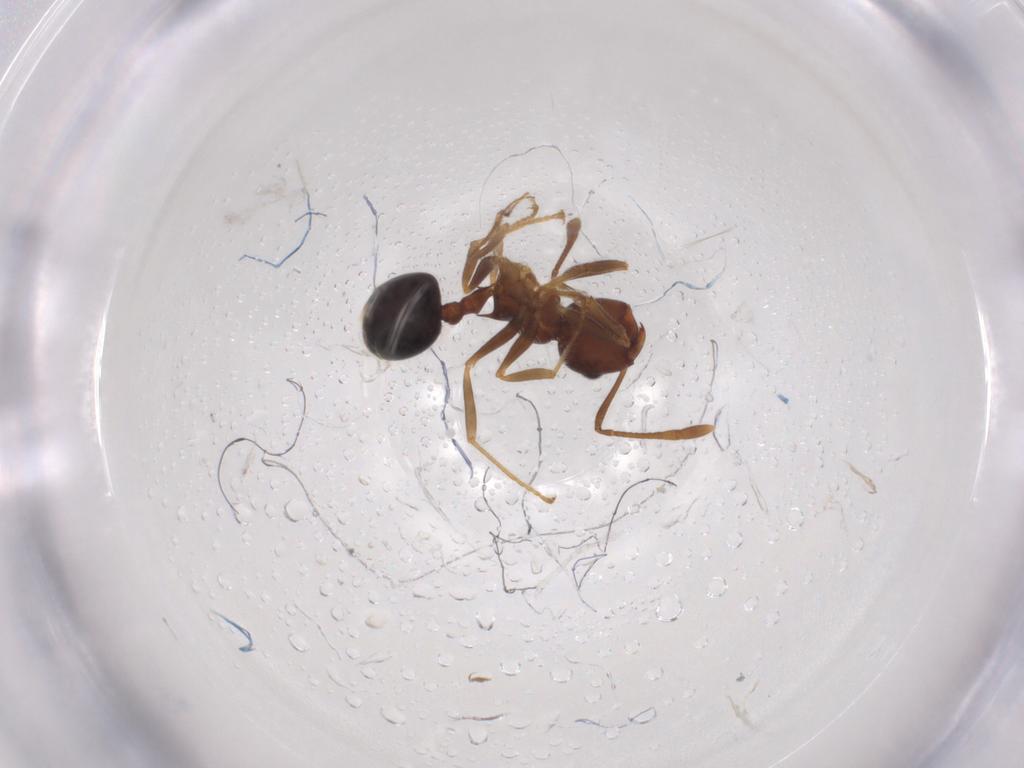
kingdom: Animalia
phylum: Arthropoda
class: Insecta
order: Hymenoptera
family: Formicidae
